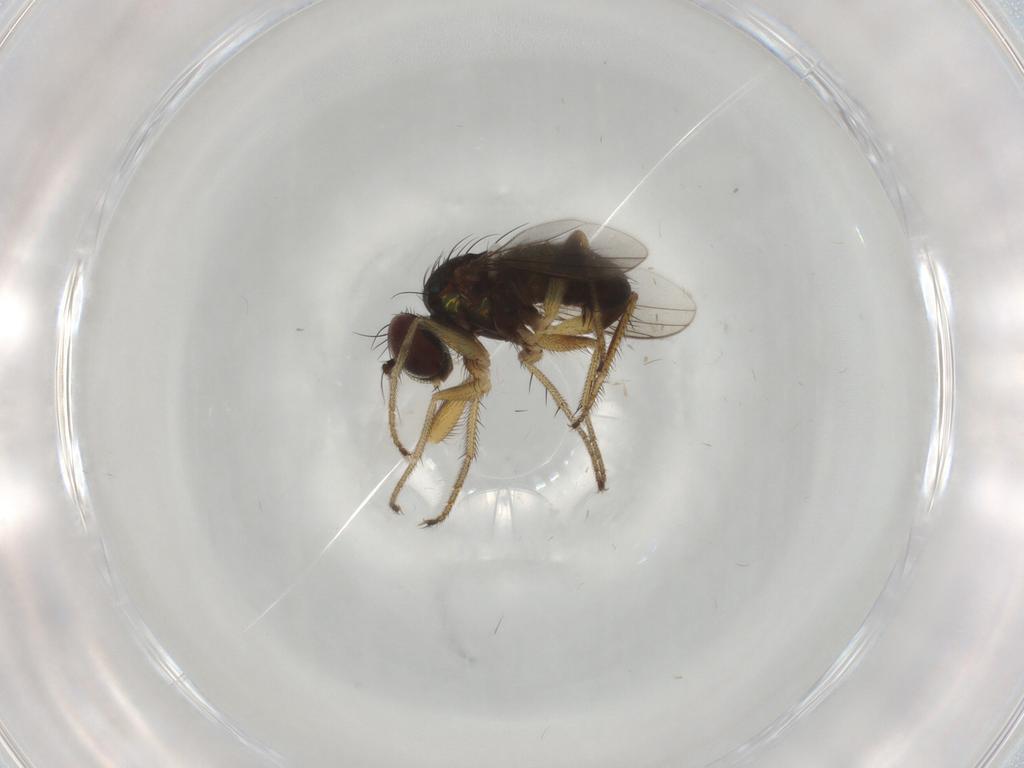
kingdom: Animalia
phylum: Arthropoda
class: Insecta
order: Diptera
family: Dolichopodidae
